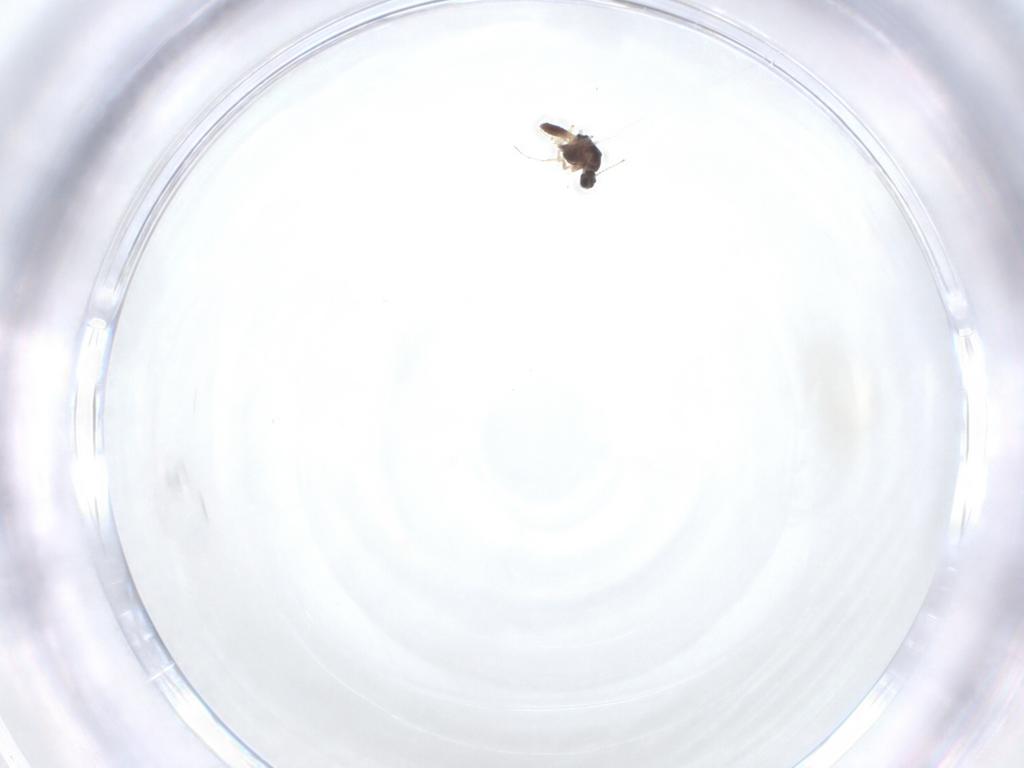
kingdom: Animalia
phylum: Arthropoda
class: Insecta
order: Diptera
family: Chironomidae
